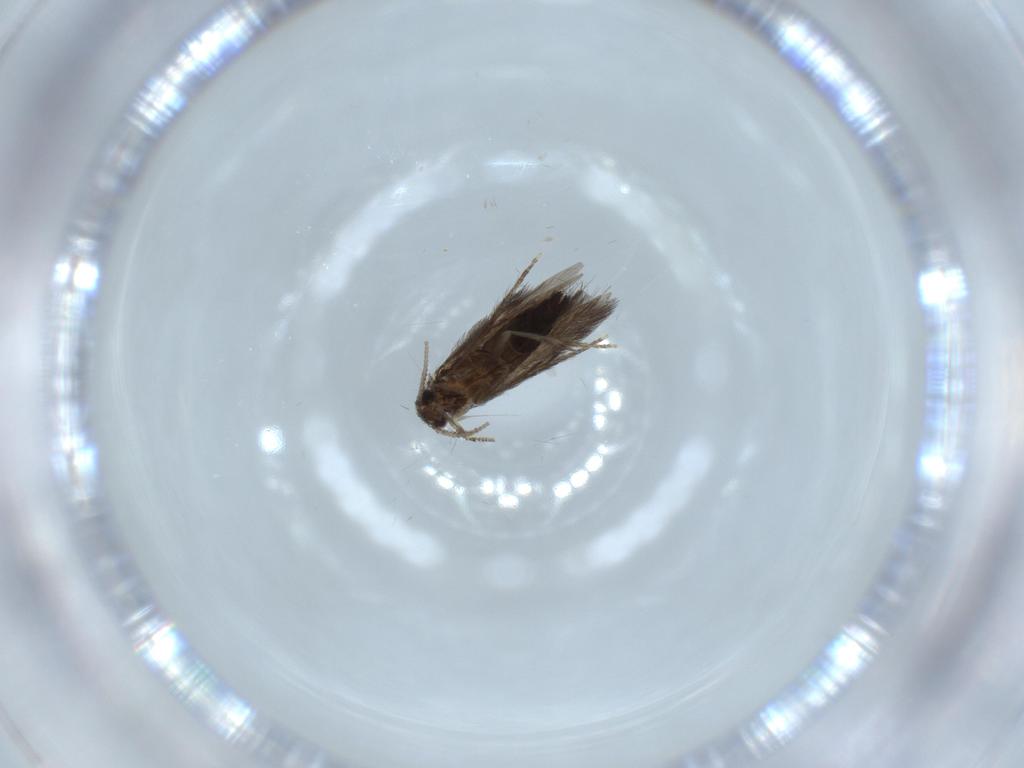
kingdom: Animalia
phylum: Arthropoda
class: Insecta
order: Trichoptera
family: Hydroptilidae
